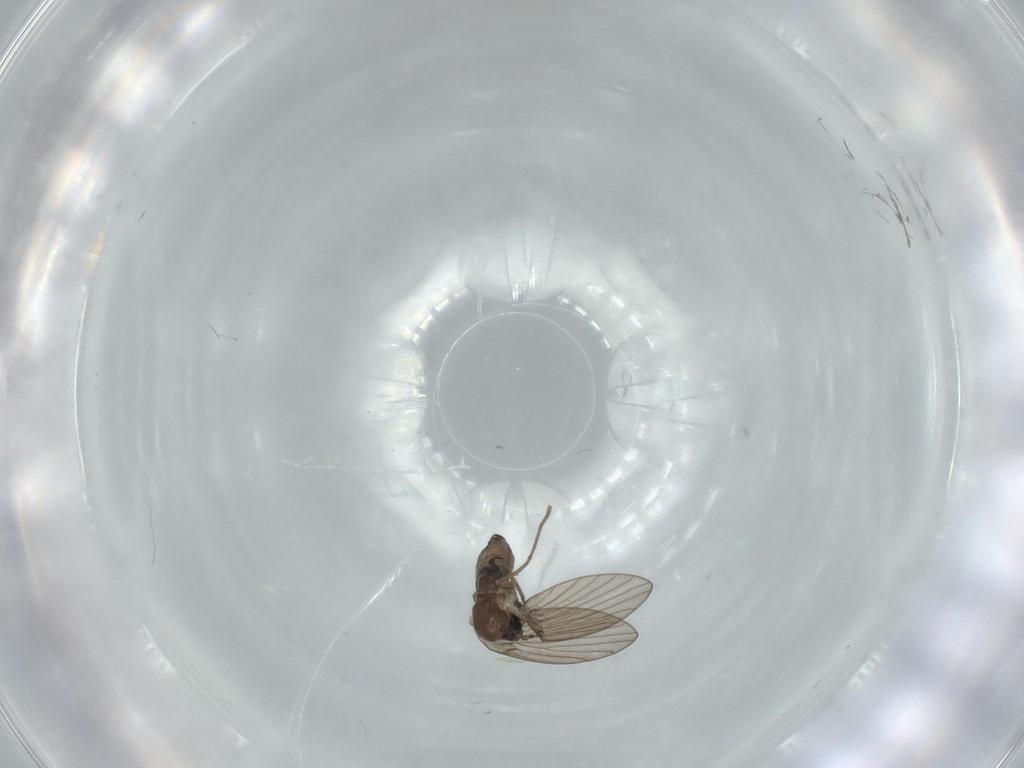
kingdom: Animalia
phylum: Arthropoda
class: Insecta
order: Diptera
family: Psychodidae
